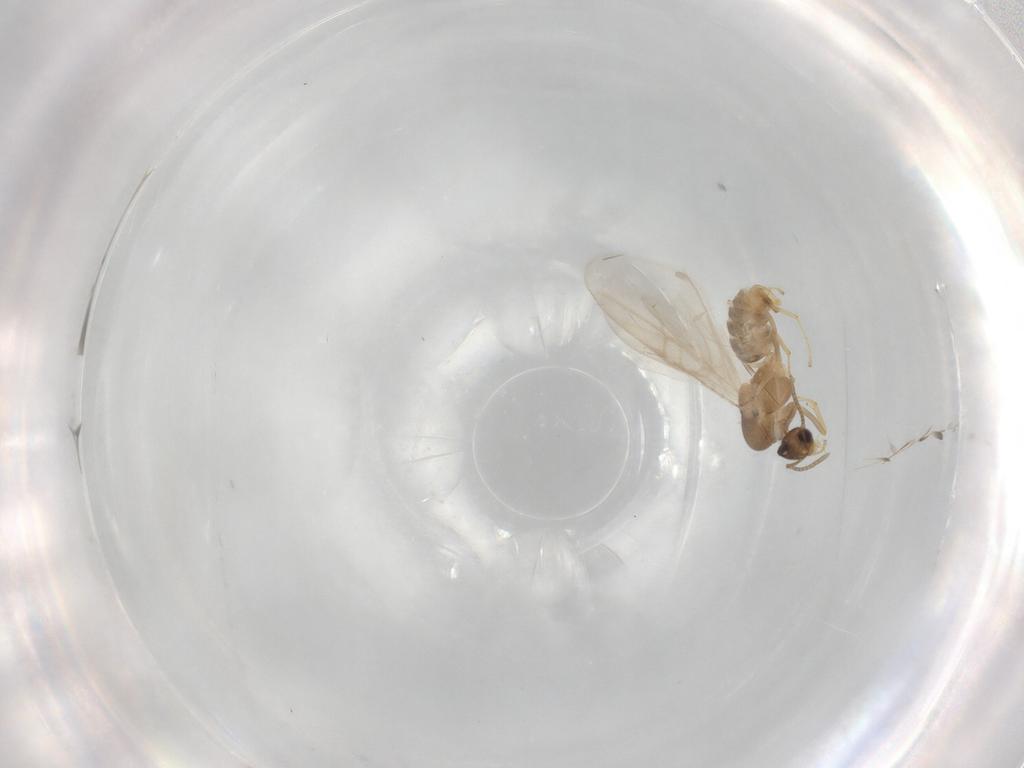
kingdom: Animalia
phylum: Arthropoda
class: Insecta
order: Hymenoptera
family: Formicidae
